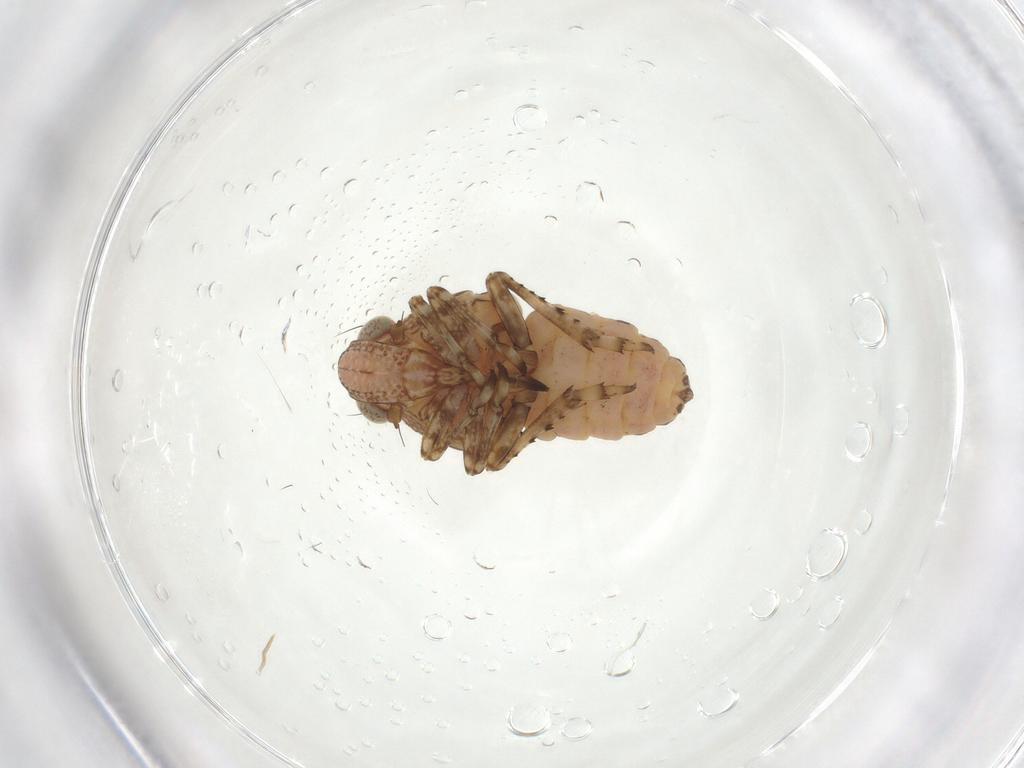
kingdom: Animalia
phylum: Arthropoda
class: Insecta
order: Hemiptera
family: Tropiduchidae
